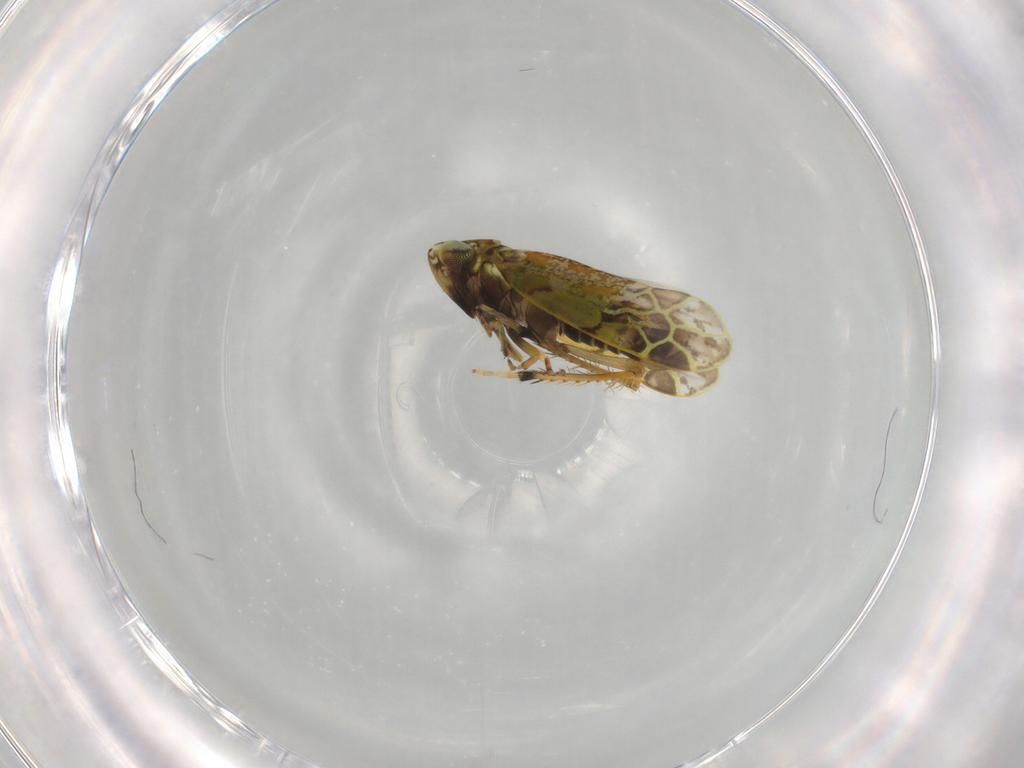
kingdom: Animalia
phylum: Arthropoda
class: Insecta
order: Hemiptera
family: Cicadellidae
